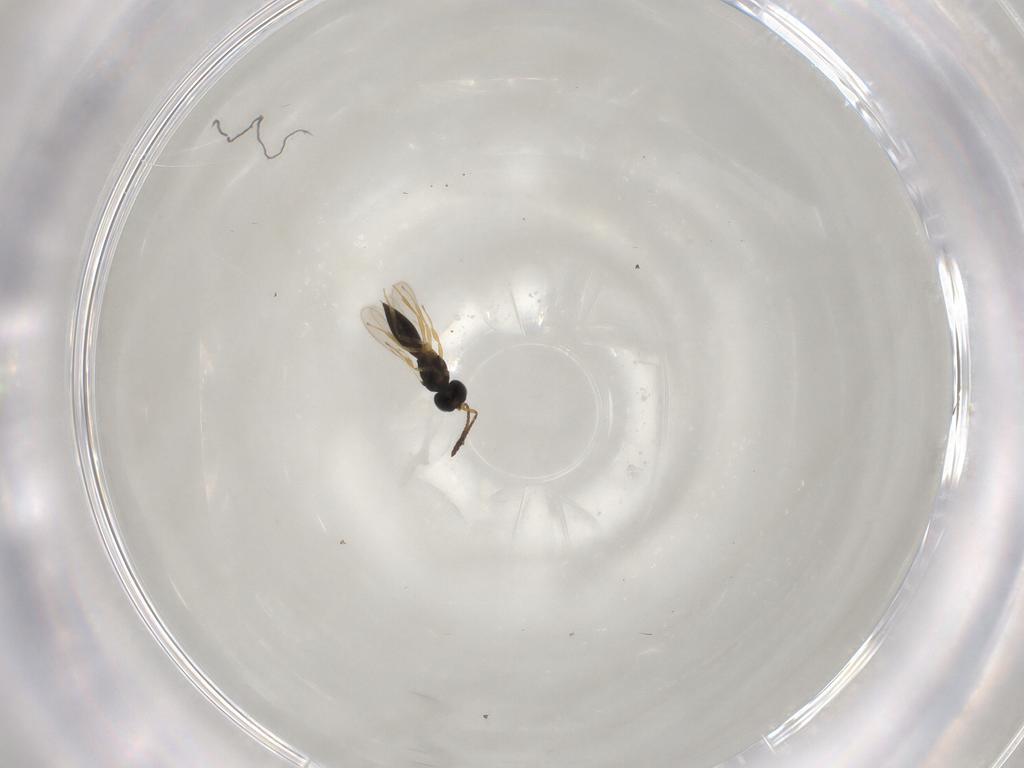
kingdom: Animalia
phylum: Arthropoda
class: Insecta
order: Hymenoptera
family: Scelionidae
